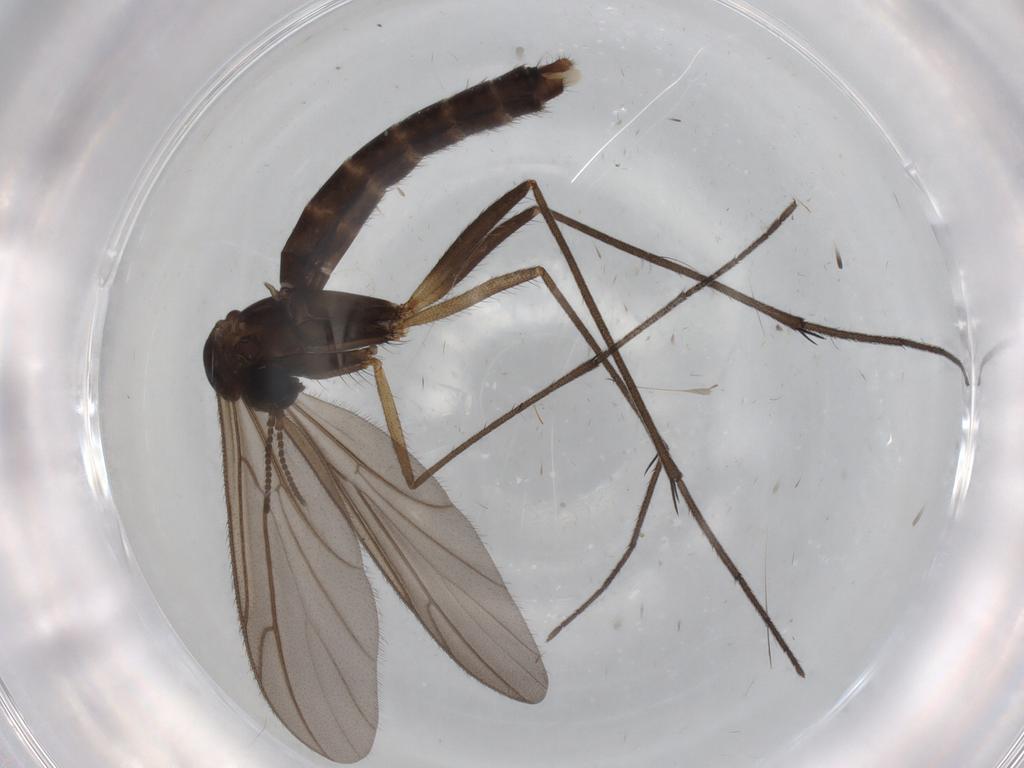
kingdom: Animalia
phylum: Arthropoda
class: Insecta
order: Diptera
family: Ditomyiidae
